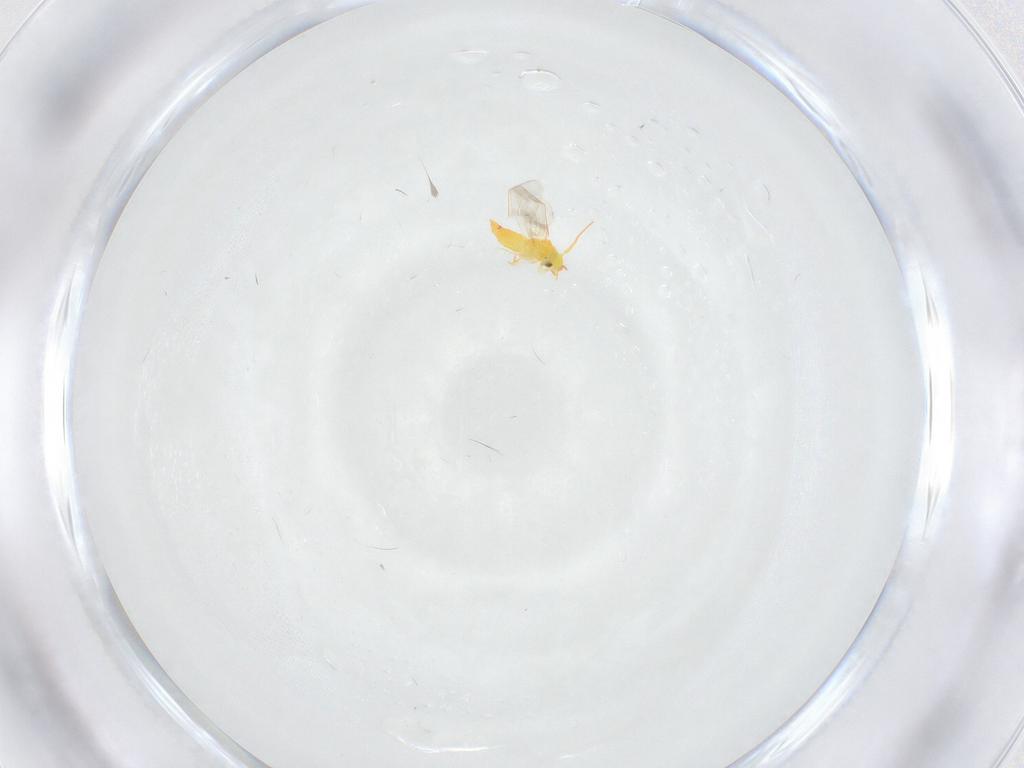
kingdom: Animalia
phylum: Arthropoda
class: Insecta
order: Hemiptera
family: Aleyrodidae
